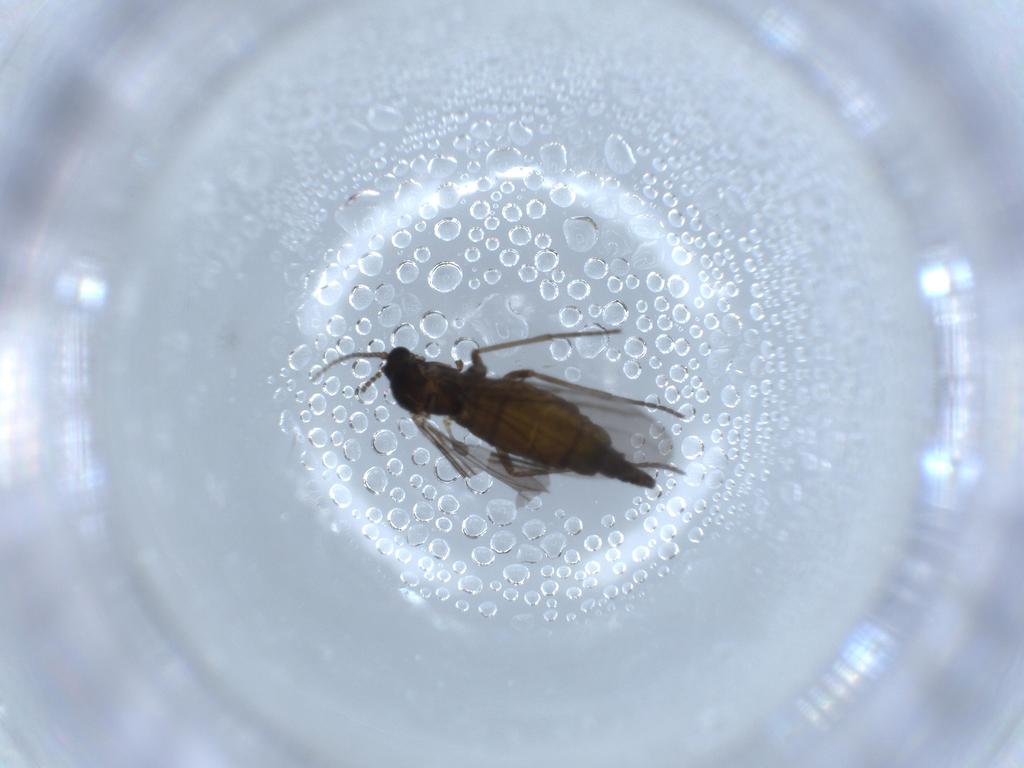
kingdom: Animalia
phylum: Arthropoda
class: Insecta
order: Diptera
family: Sciaridae
